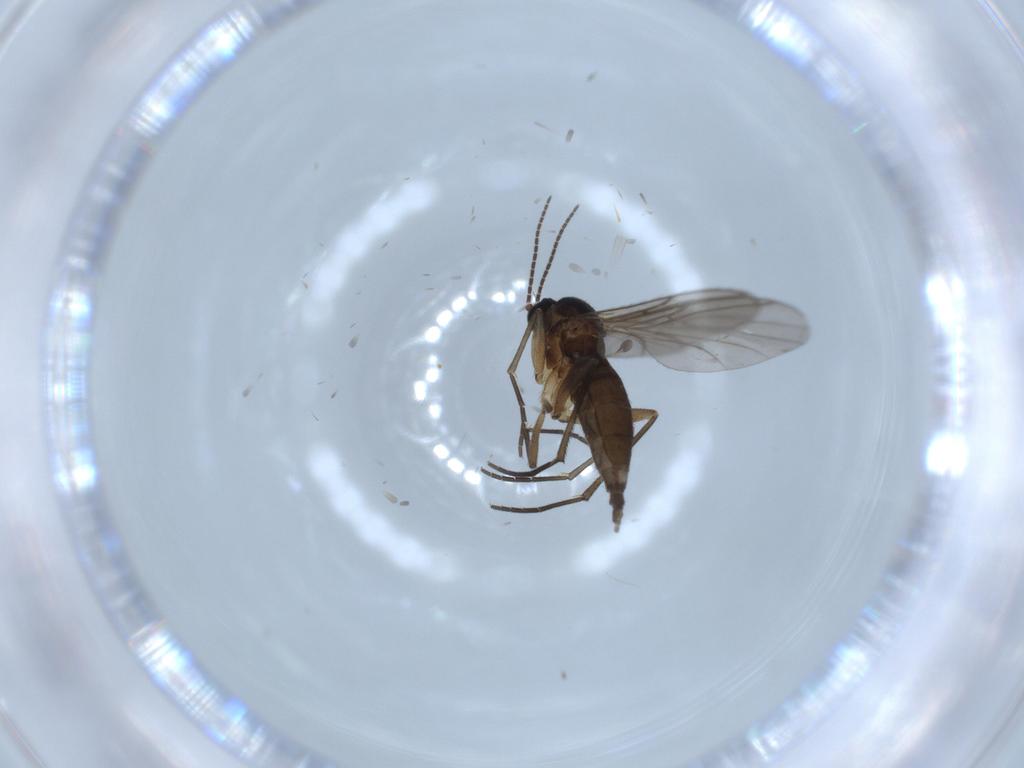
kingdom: Animalia
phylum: Arthropoda
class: Insecta
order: Diptera
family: Sciaridae
